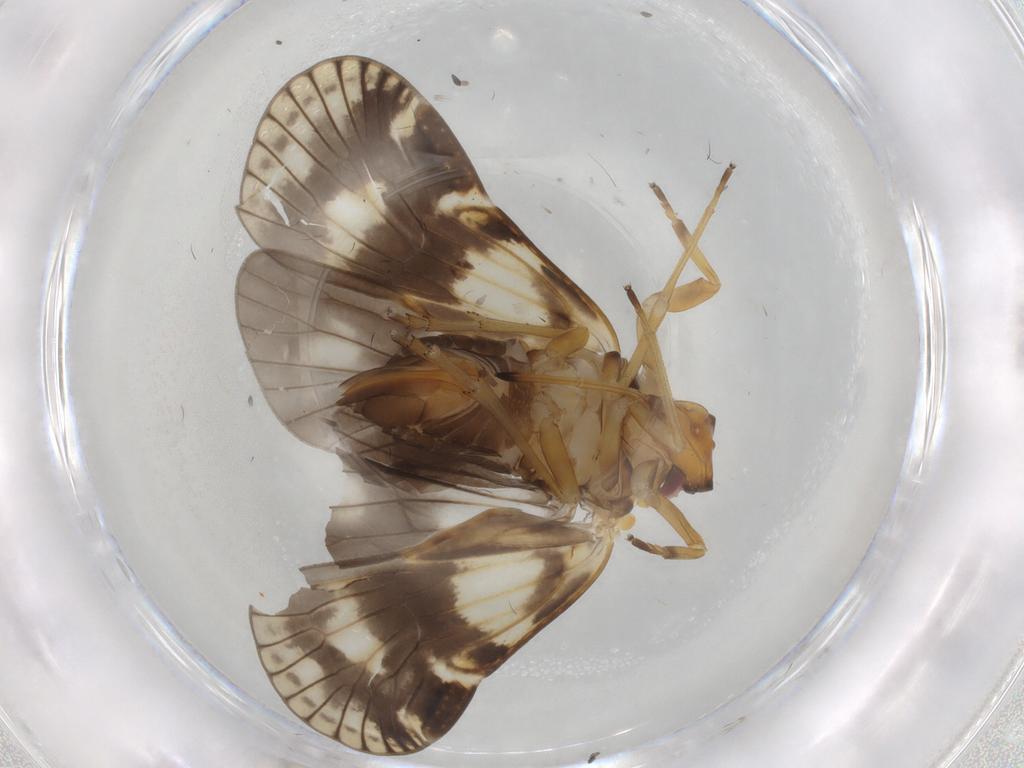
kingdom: Animalia
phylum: Arthropoda
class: Insecta
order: Hemiptera
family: Cixiidae
